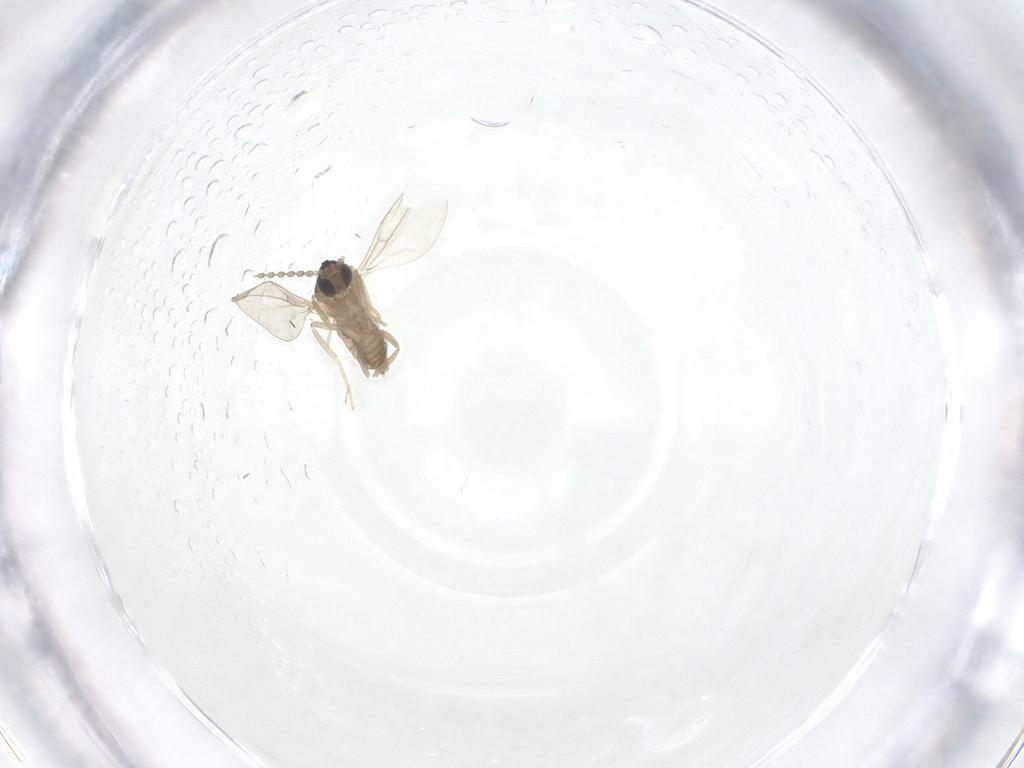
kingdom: Animalia
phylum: Arthropoda
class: Insecta
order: Diptera
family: Cecidomyiidae
